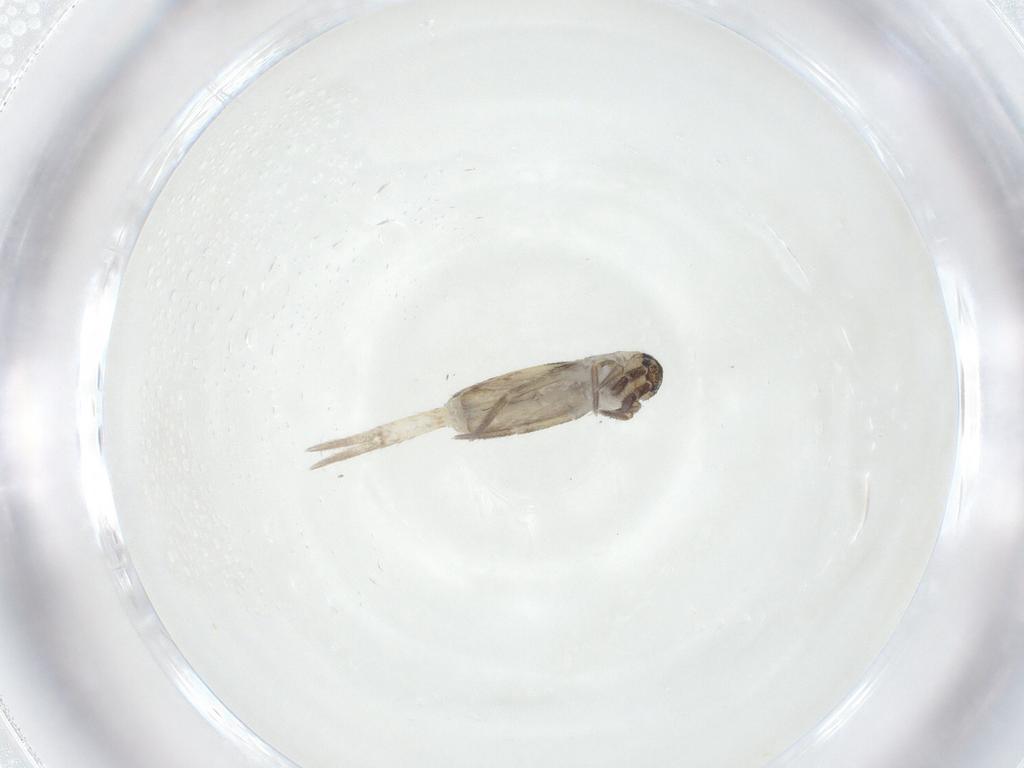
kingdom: Animalia
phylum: Arthropoda
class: Collembola
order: Entomobryomorpha
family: Entomobryidae
